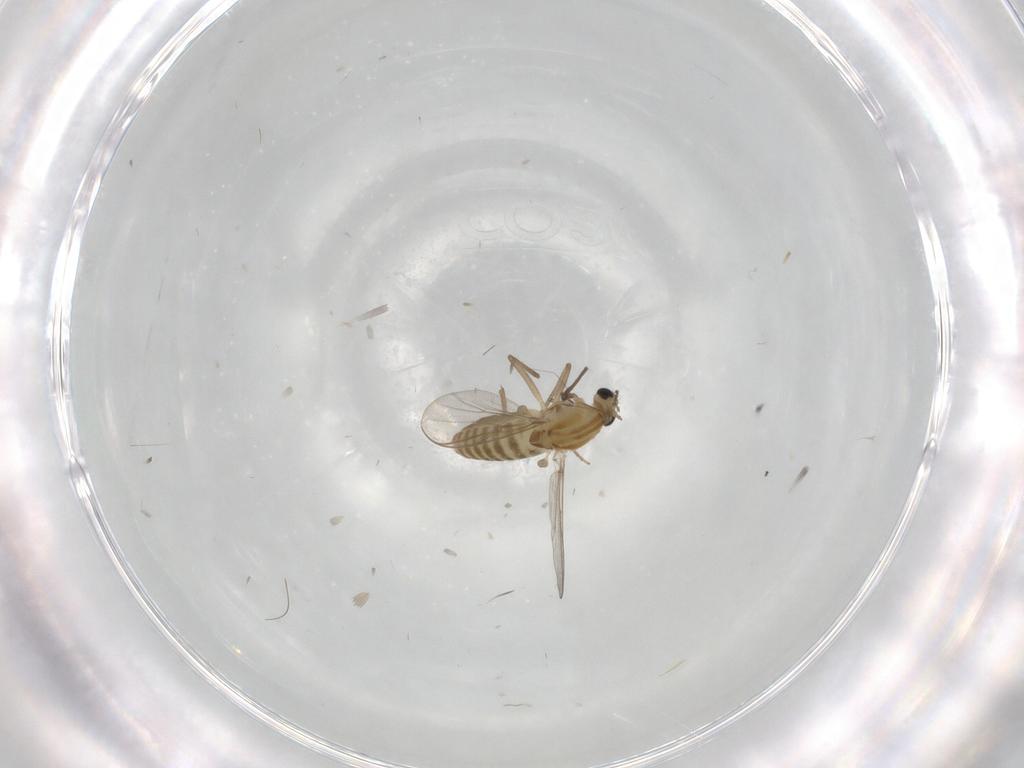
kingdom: Animalia
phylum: Arthropoda
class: Insecta
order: Diptera
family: Chironomidae
